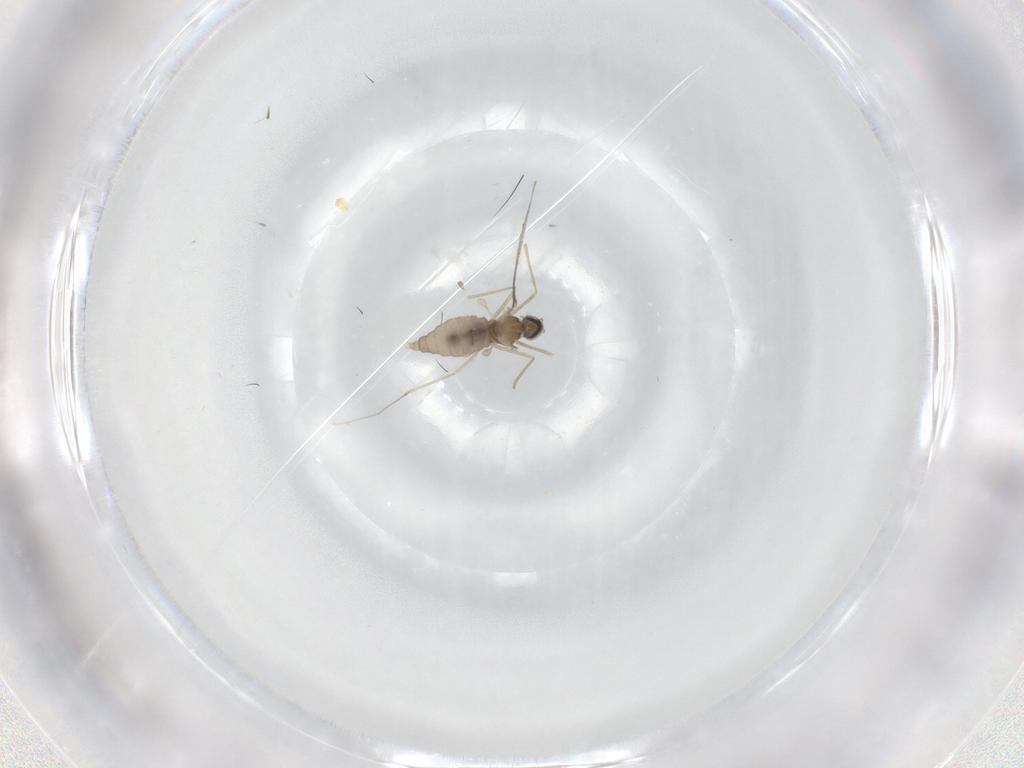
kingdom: Animalia
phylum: Arthropoda
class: Insecta
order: Diptera
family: Cecidomyiidae
